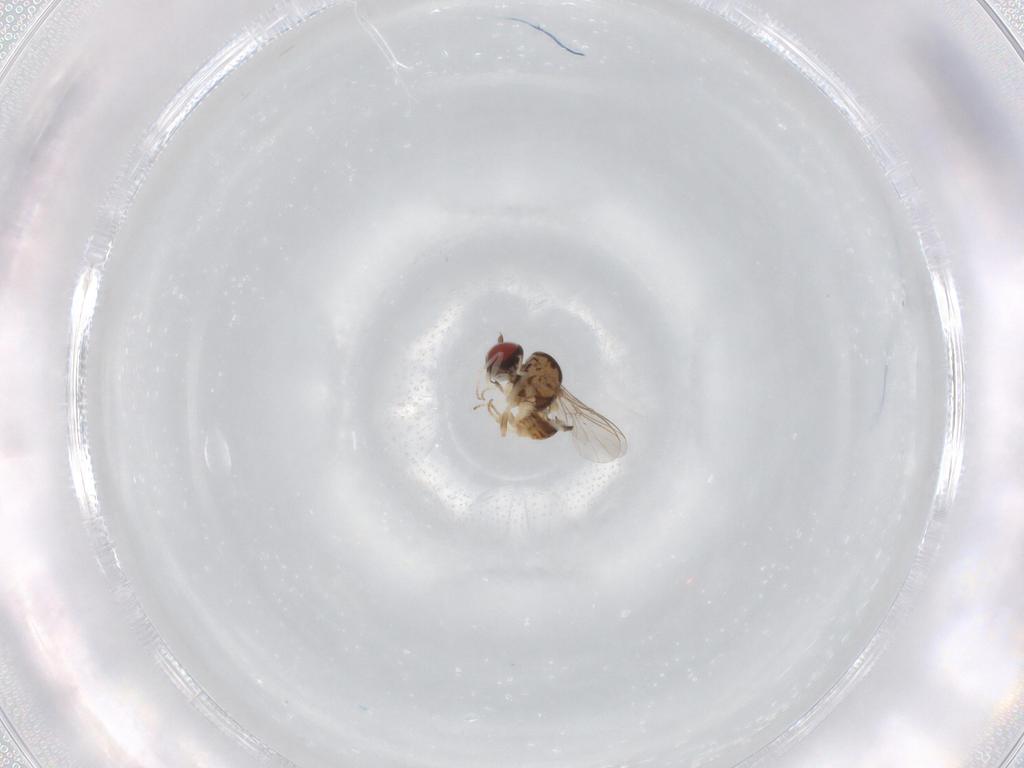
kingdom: Animalia
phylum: Arthropoda
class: Insecta
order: Diptera
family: Bombyliidae
